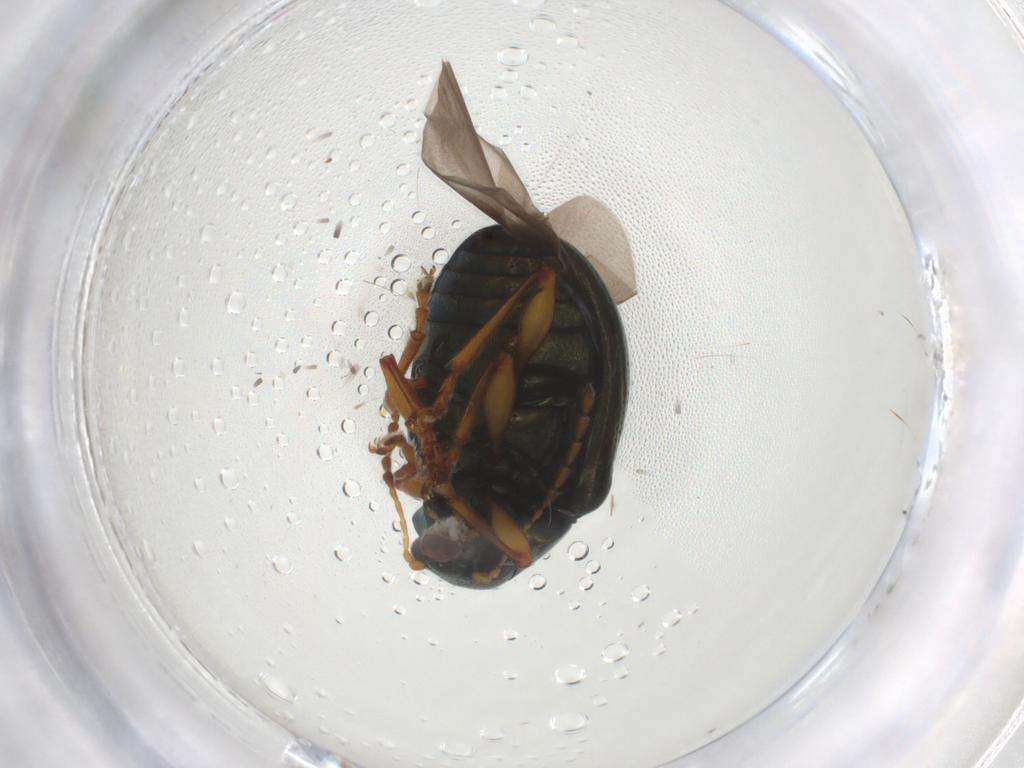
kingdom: Animalia
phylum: Arthropoda
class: Insecta
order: Coleoptera
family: Chrysomelidae
